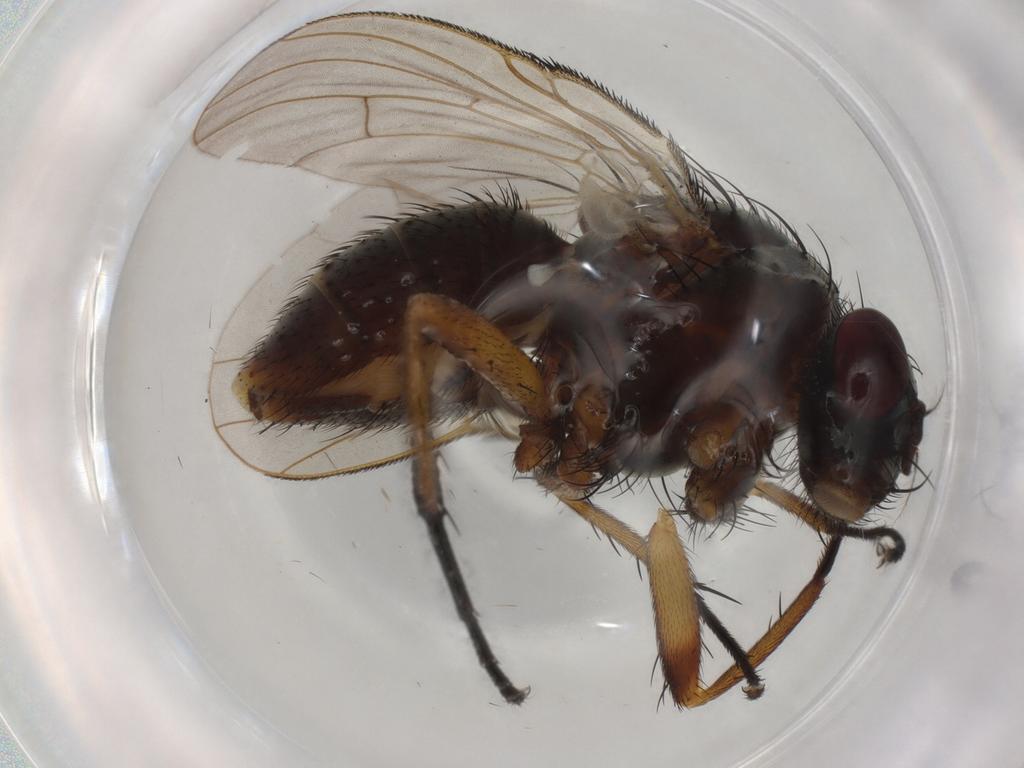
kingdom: Animalia
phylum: Arthropoda
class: Insecta
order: Diptera
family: Muscidae
